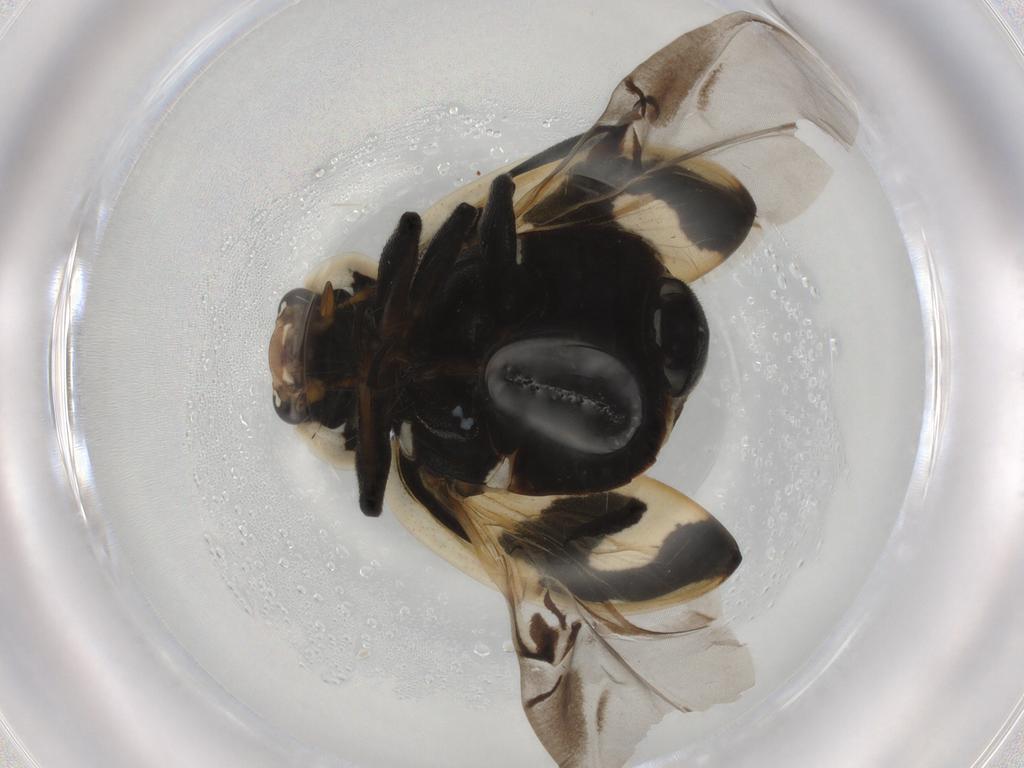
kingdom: Animalia
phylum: Arthropoda
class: Insecta
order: Coleoptera
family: Coccinellidae
